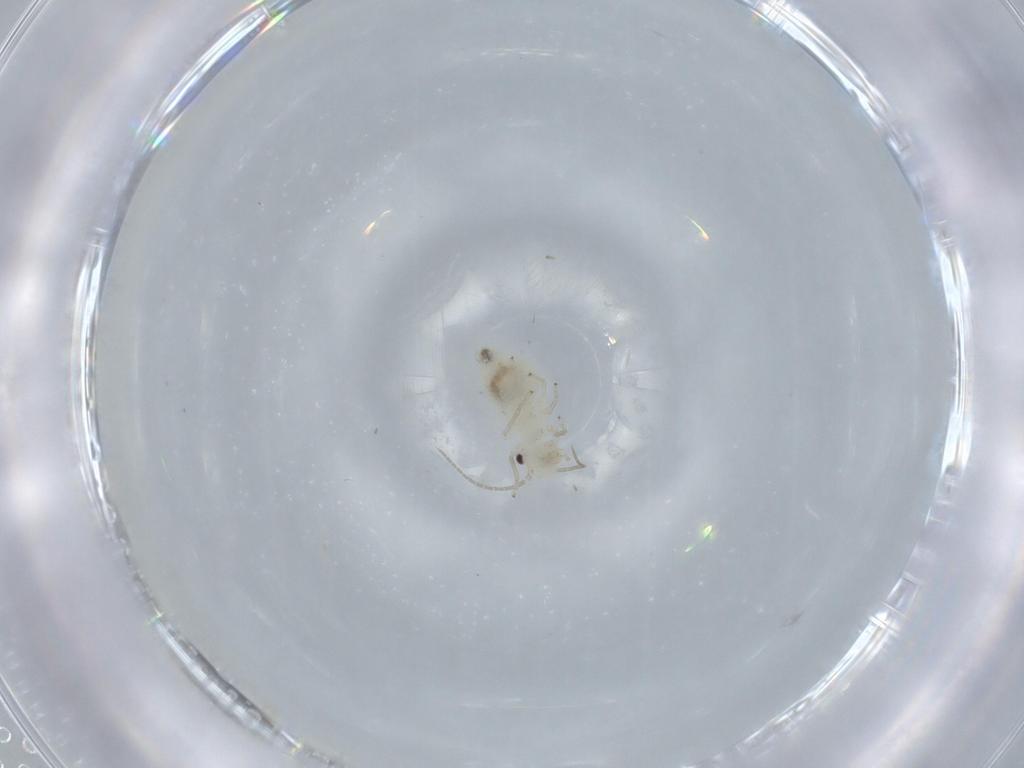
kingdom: Animalia
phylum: Arthropoda
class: Insecta
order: Psocodea
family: Caeciliusidae
